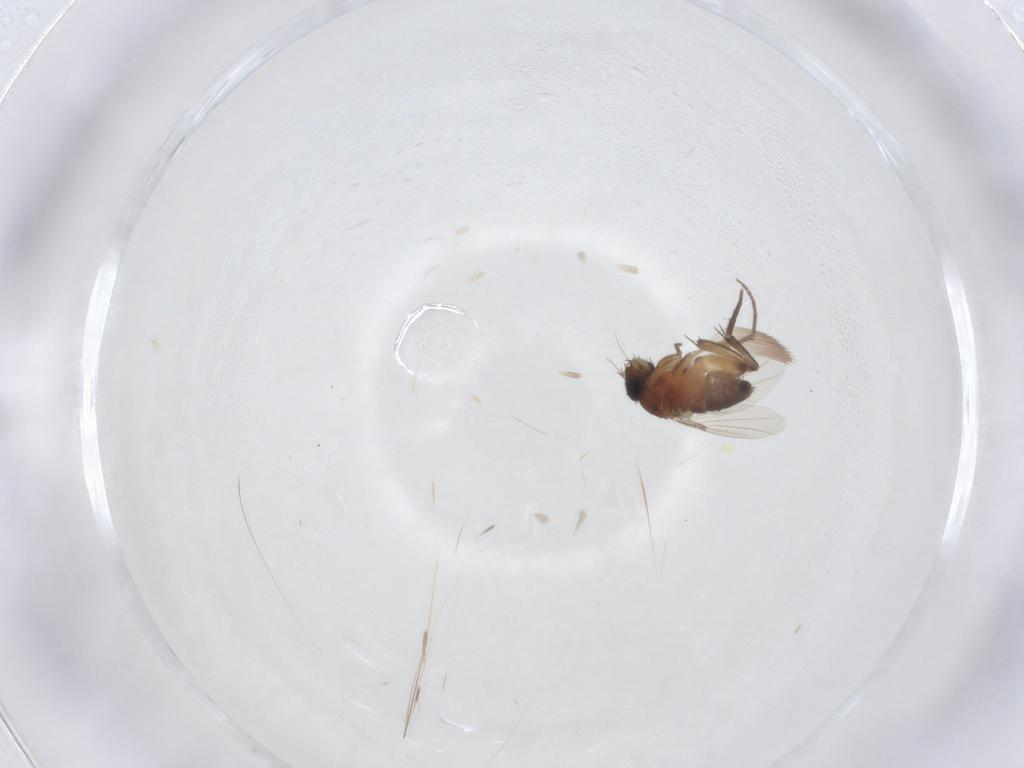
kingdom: Animalia
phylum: Arthropoda
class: Insecta
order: Diptera
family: Phoridae
